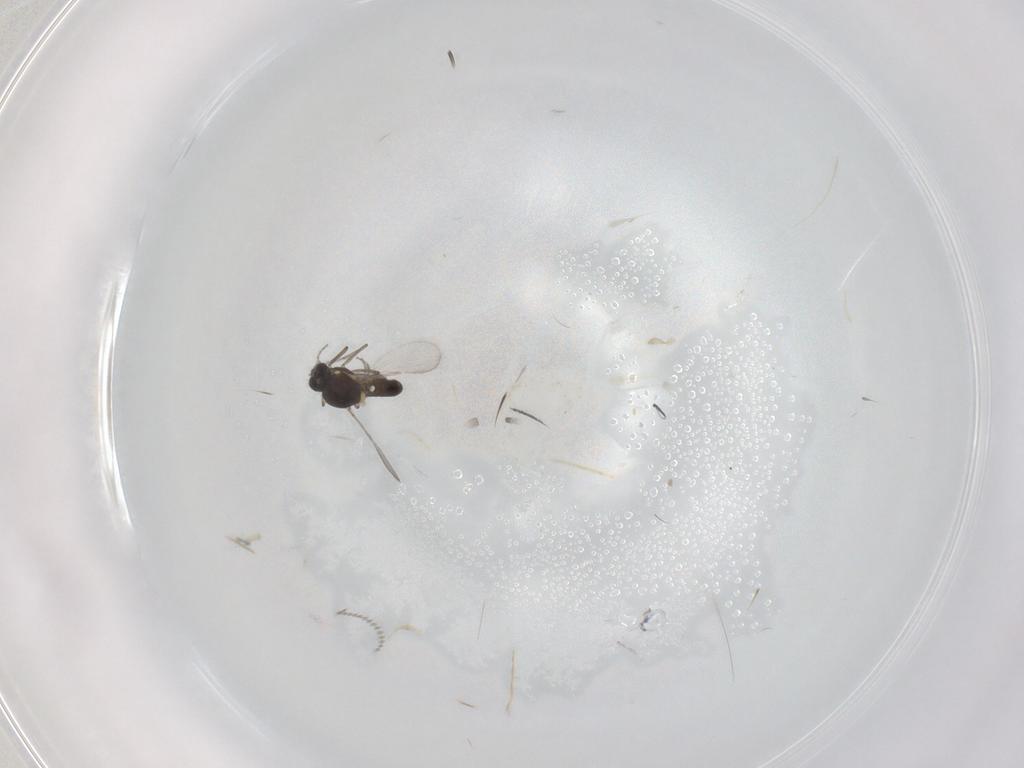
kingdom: Animalia
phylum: Arthropoda
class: Insecta
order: Diptera
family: Ceratopogonidae
